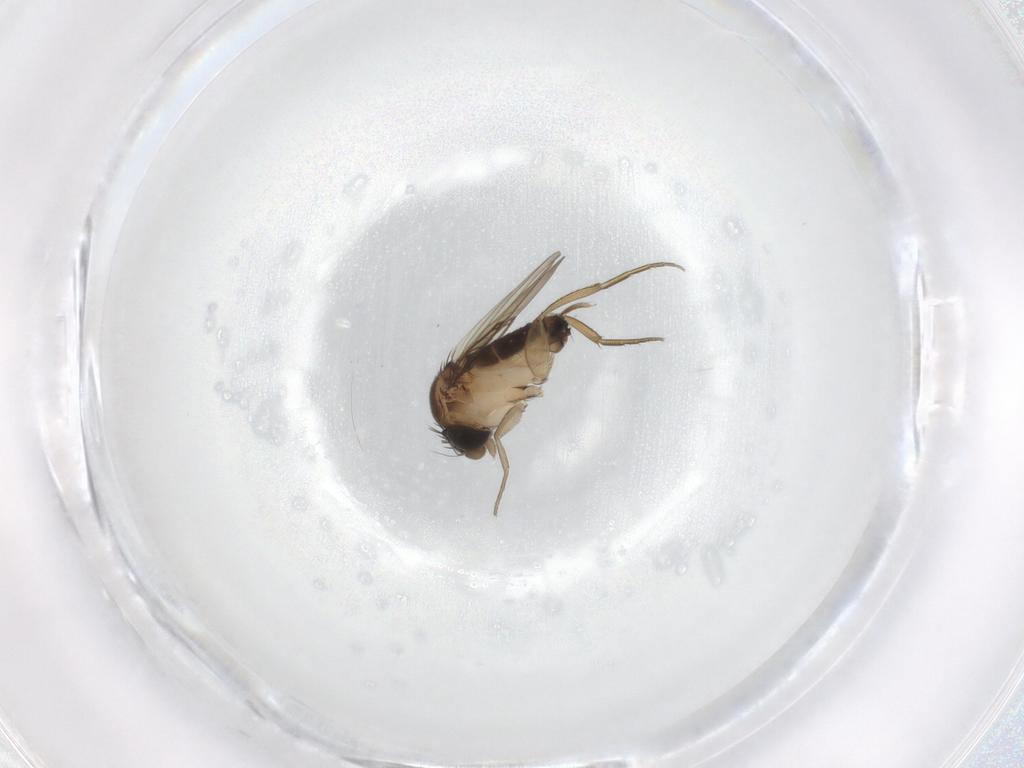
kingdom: Animalia
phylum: Arthropoda
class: Insecta
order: Diptera
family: Phoridae
